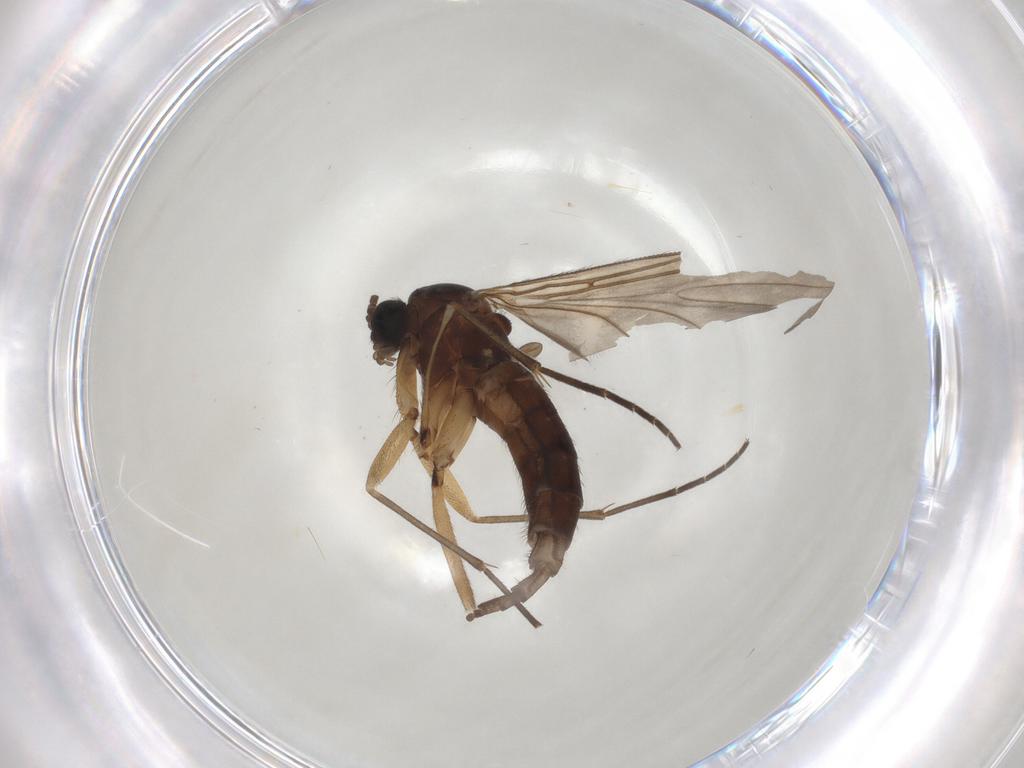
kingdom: Animalia
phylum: Arthropoda
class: Insecta
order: Diptera
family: Sciaridae
